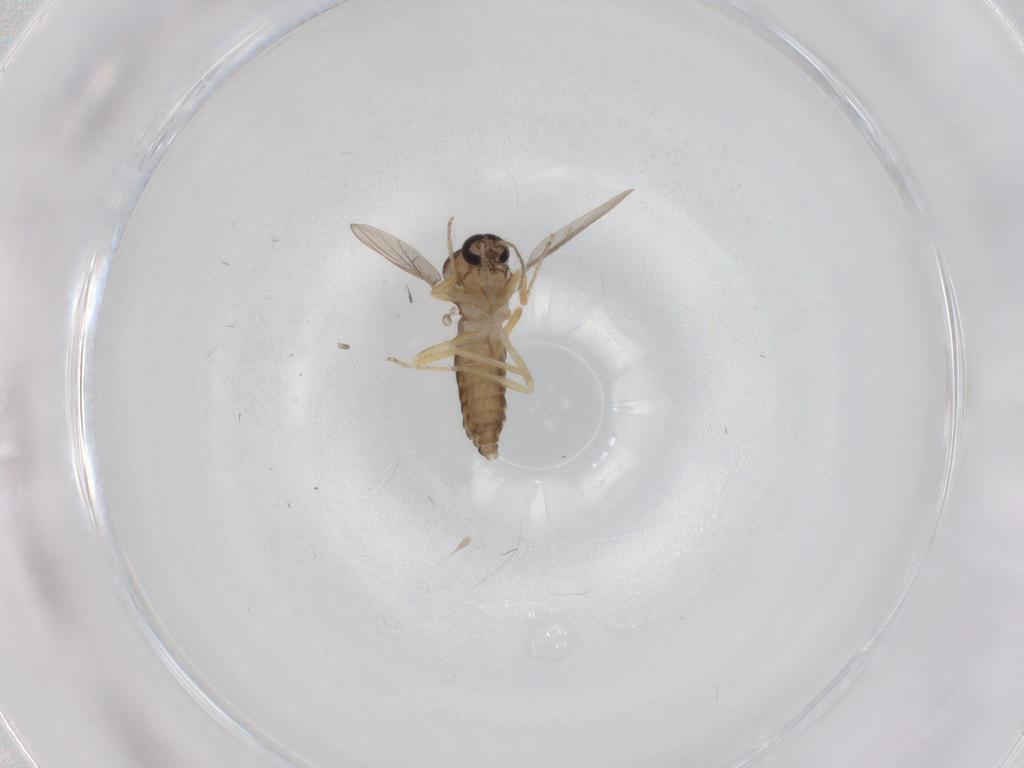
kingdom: Animalia
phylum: Arthropoda
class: Insecta
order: Diptera
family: Ceratopogonidae
